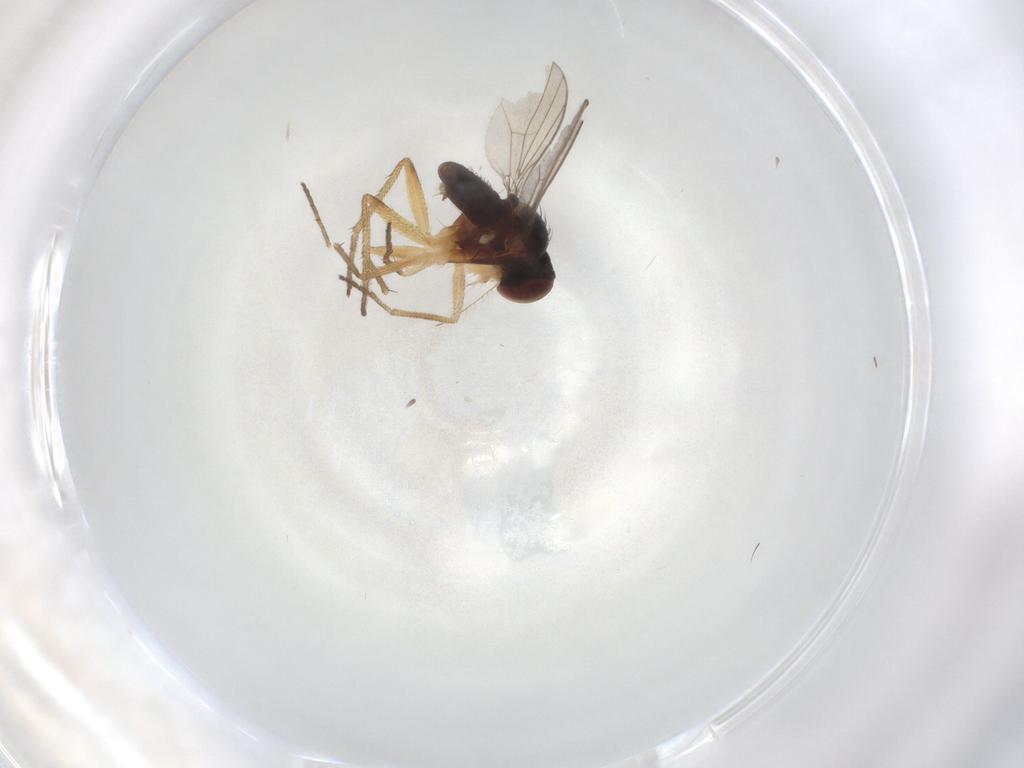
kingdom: Animalia
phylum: Arthropoda
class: Insecta
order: Diptera
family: Dolichopodidae
